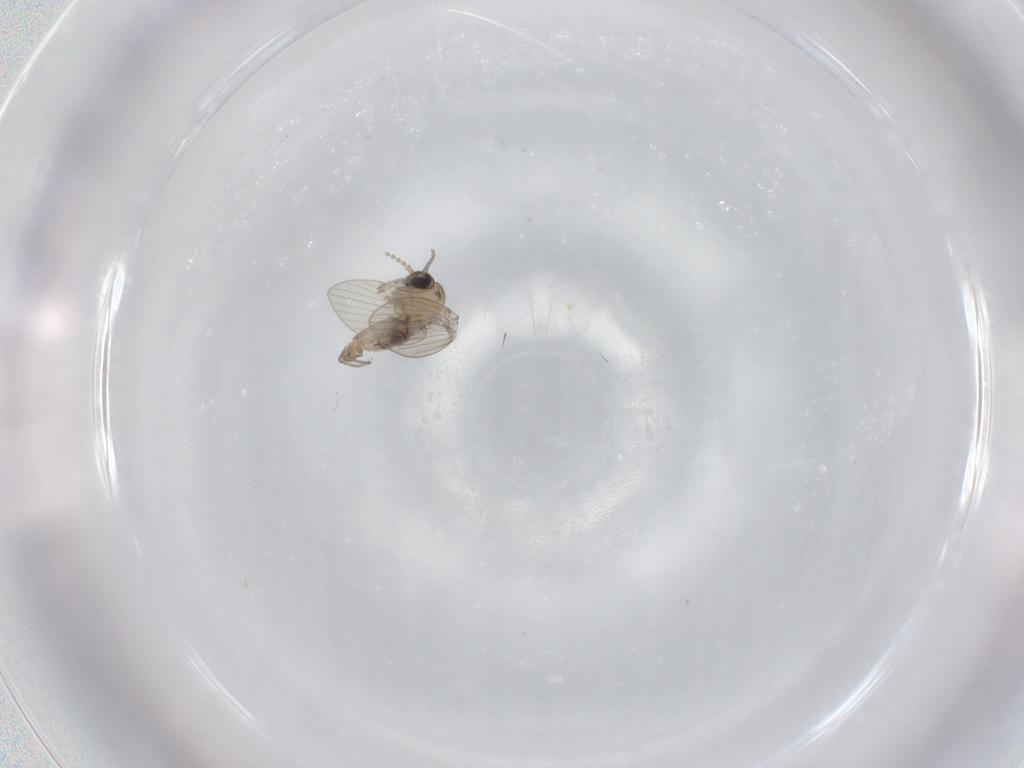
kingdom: Animalia
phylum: Arthropoda
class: Insecta
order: Diptera
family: Psychodidae
